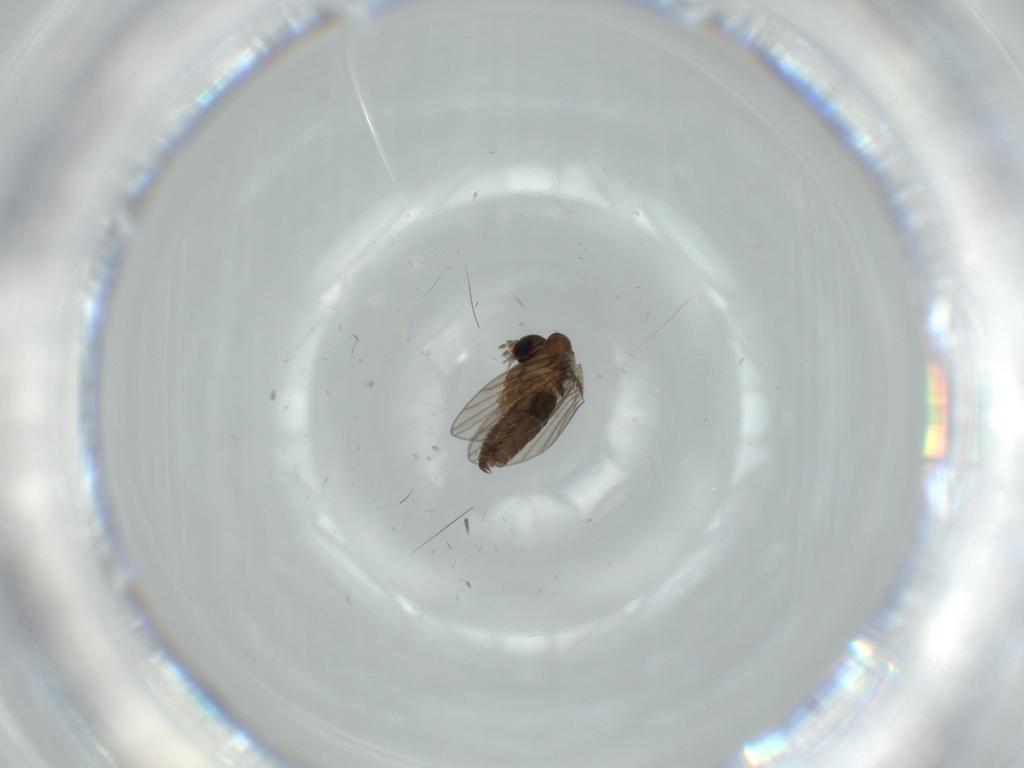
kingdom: Animalia
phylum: Arthropoda
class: Insecta
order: Diptera
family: Psychodidae
